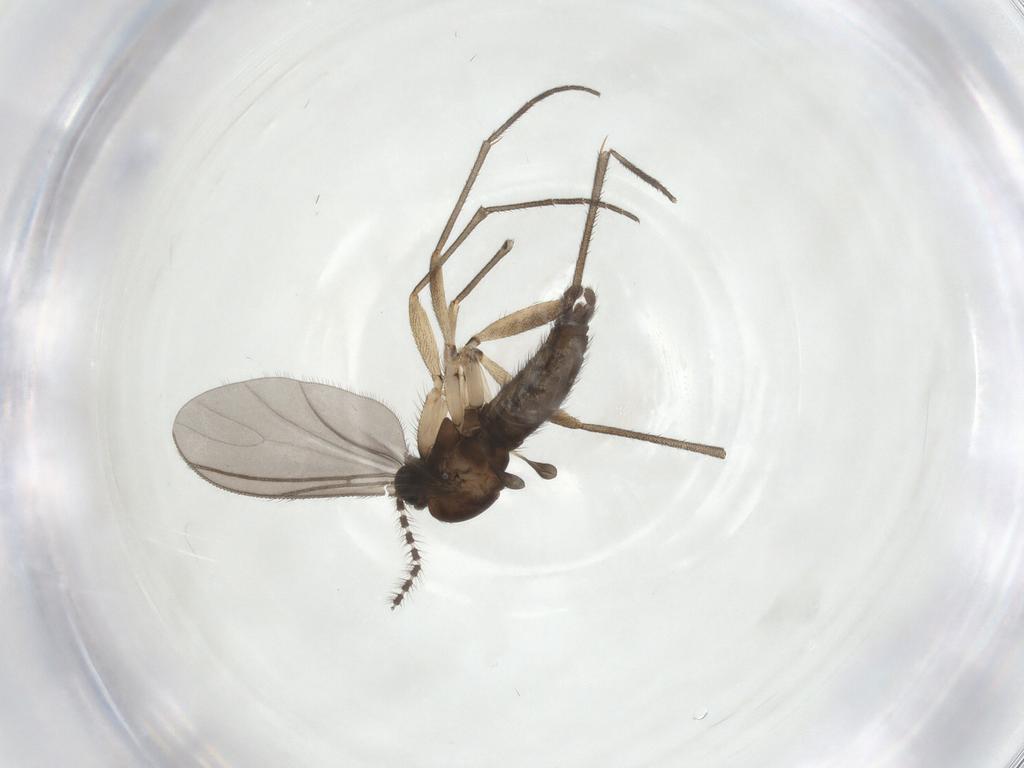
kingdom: Animalia
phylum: Arthropoda
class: Insecta
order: Diptera
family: Sciaridae
